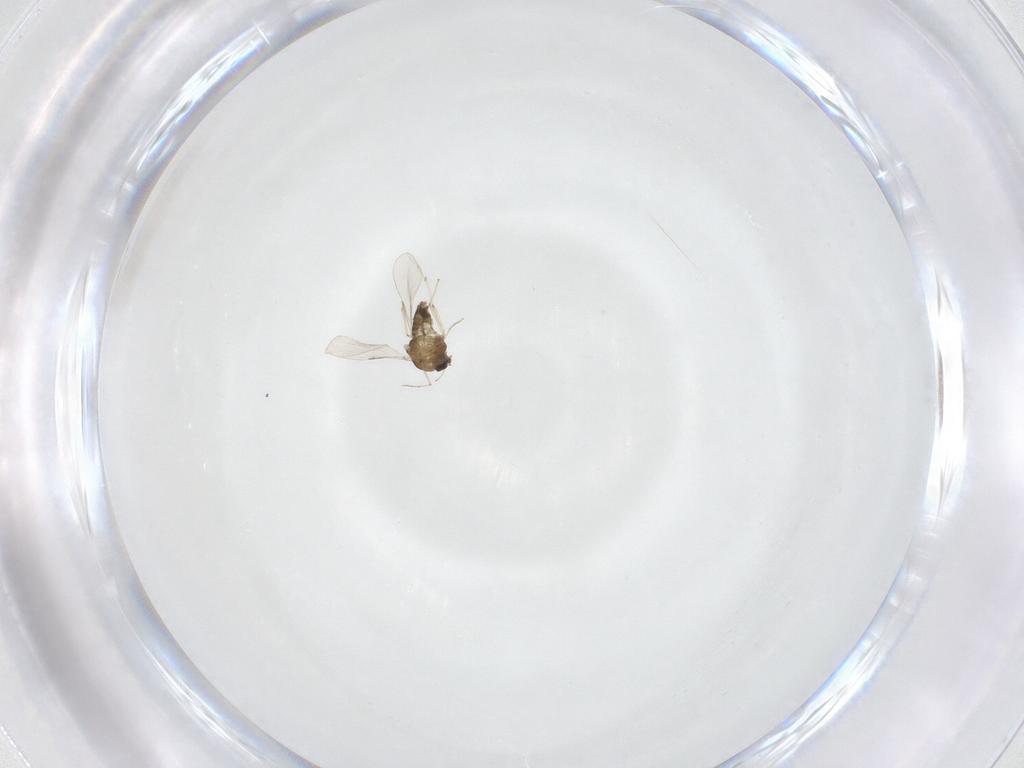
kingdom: Animalia
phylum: Arthropoda
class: Insecta
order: Diptera
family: Chironomidae
